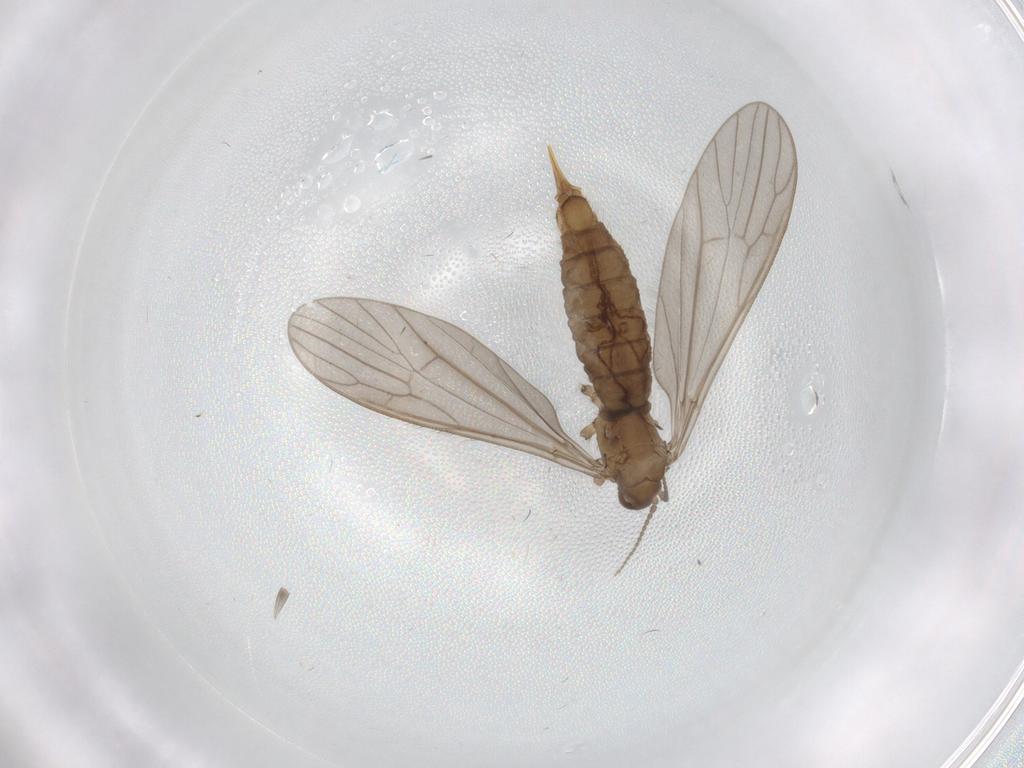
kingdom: Animalia
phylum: Arthropoda
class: Insecta
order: Diptera
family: Limoniidae
